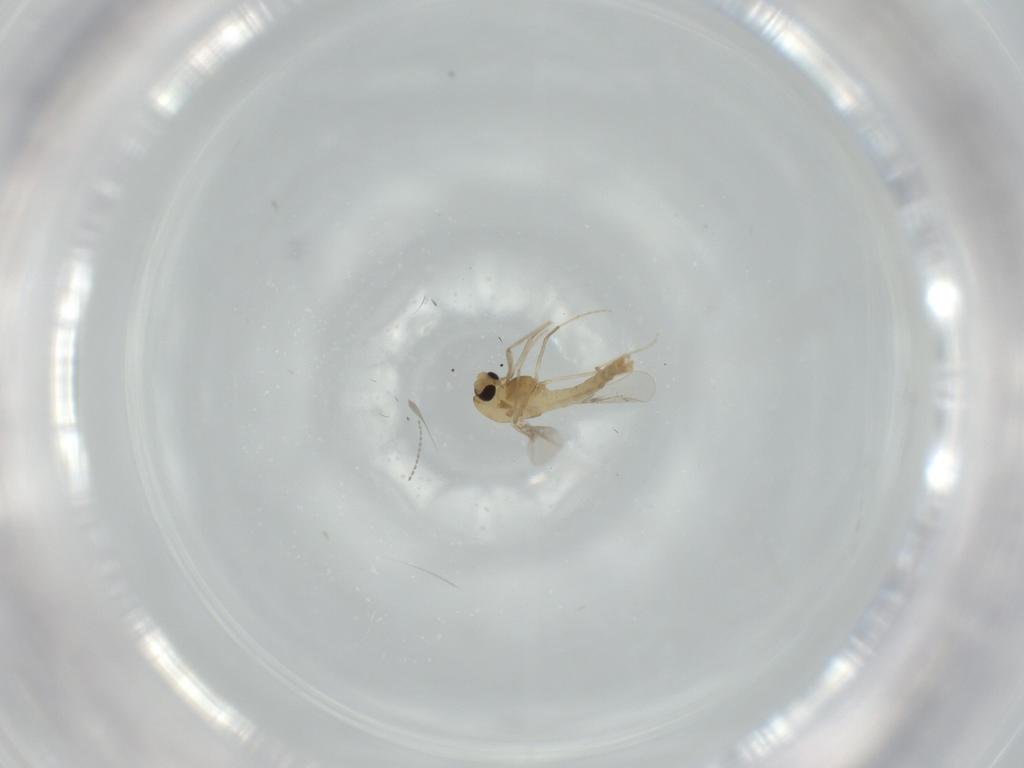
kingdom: Animalia
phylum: Arthropoda
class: Insecta
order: Diptera
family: Chironomidae
